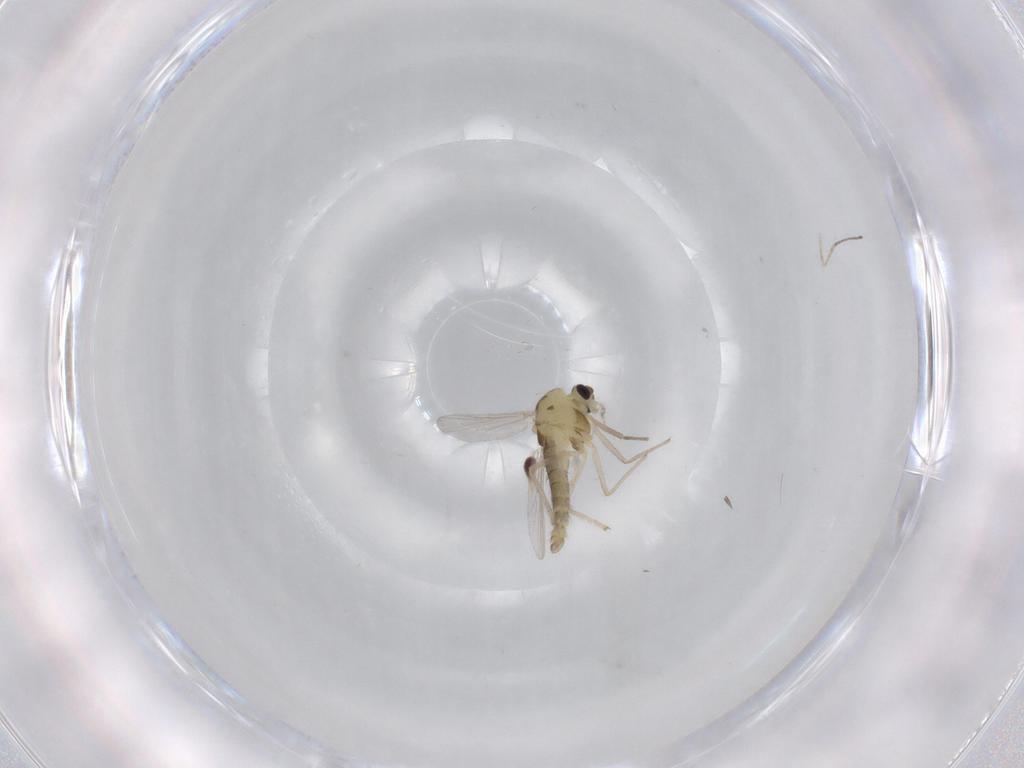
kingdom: Animalia
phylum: Arthropoda
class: Insecta
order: Diptera
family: Chironomidae
